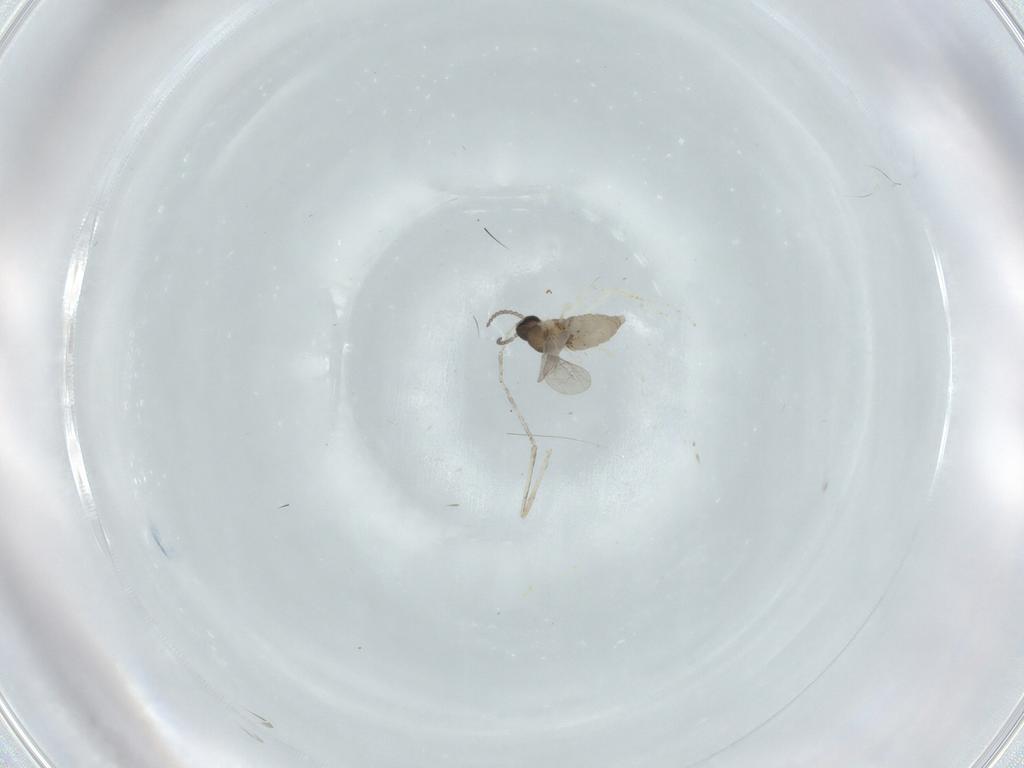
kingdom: Animalia
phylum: Arthropoda
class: Insecta
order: Diptera
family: Cecidomyiidae
